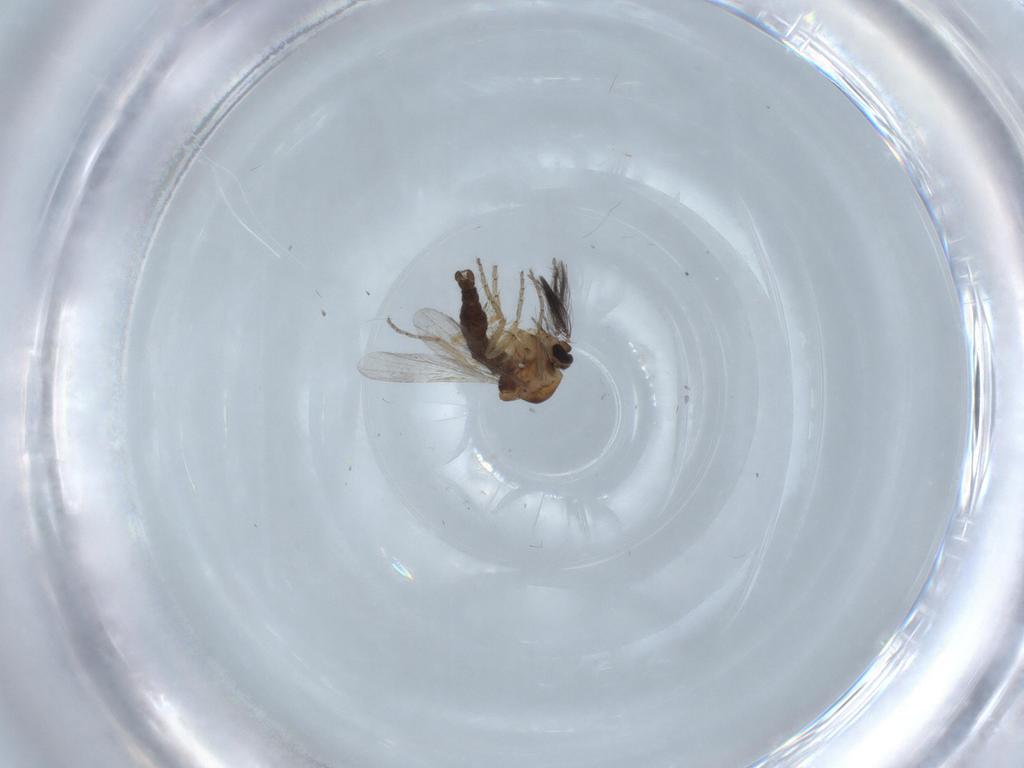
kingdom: Animalia
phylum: Arthropoda
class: Insecta
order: Diptera
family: Ceratopogonidae
